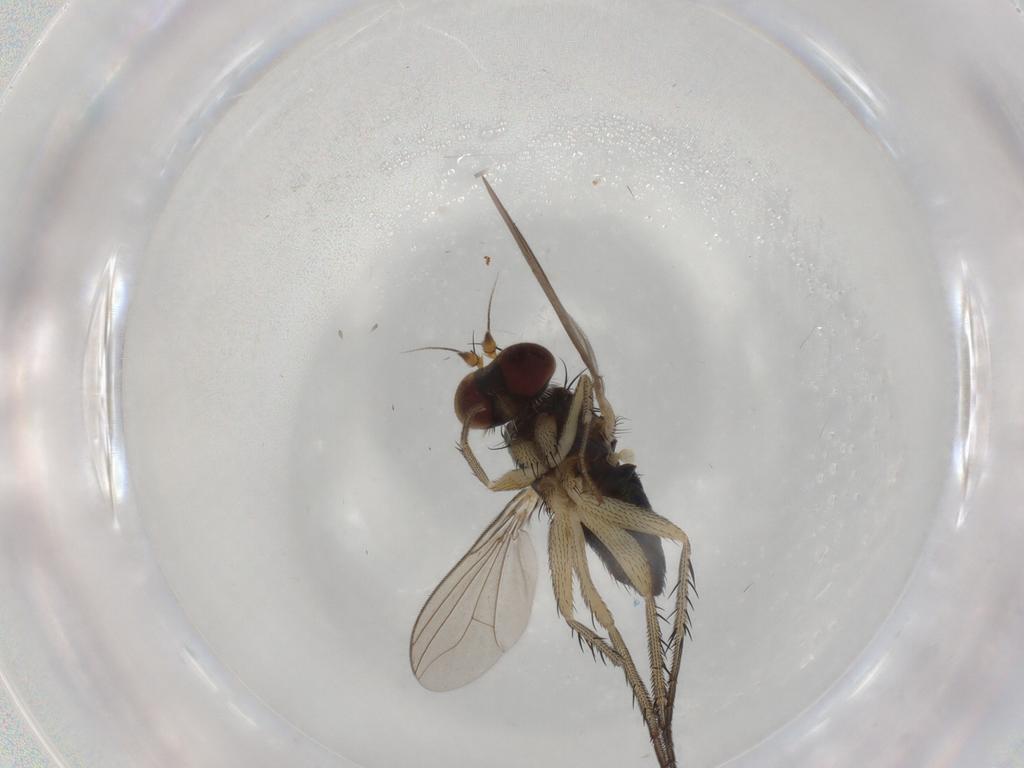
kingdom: Animalia
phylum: Arthropoda
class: Insecta
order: Diptera
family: Dolichopodidae
